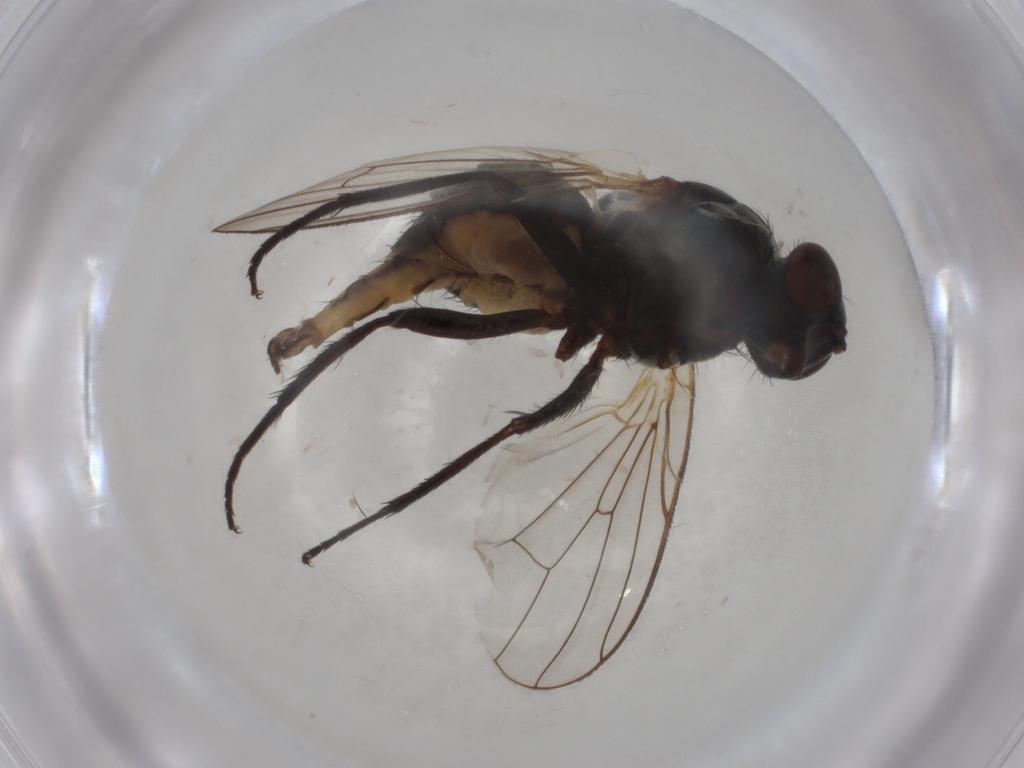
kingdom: Animalia
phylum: Arthropoda
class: Insecta
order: Diptera
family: Anthomyiidae
